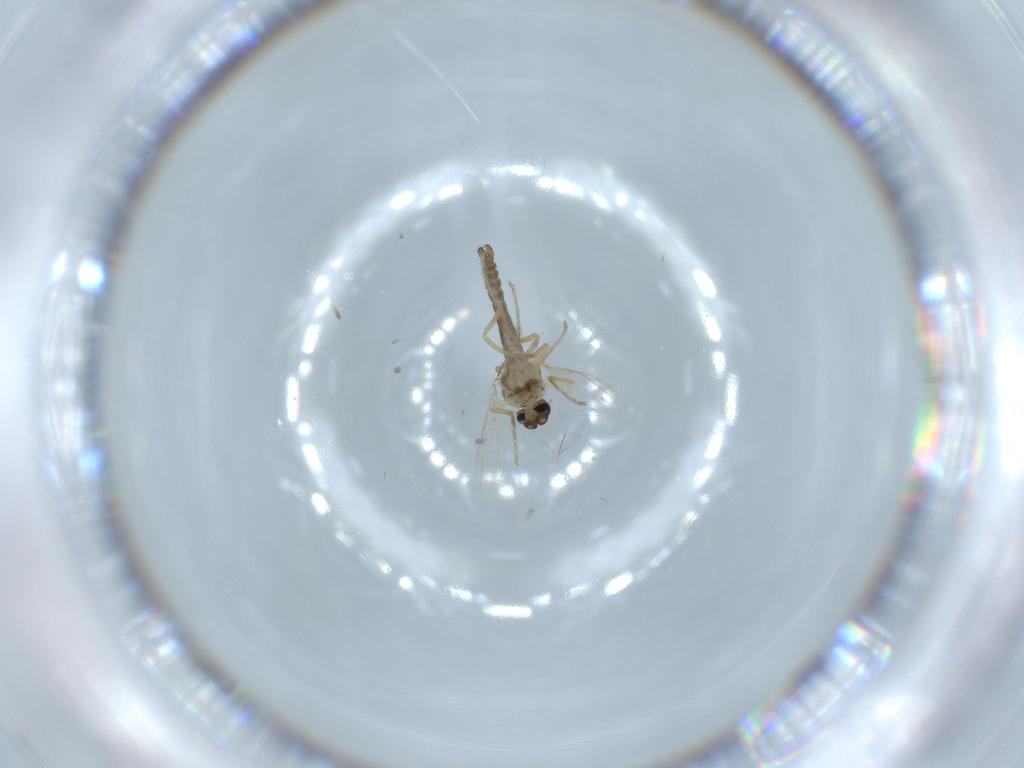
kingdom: Animalia
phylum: Arthropoda
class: Insecta
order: Diptera
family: Ceratopogonidae
